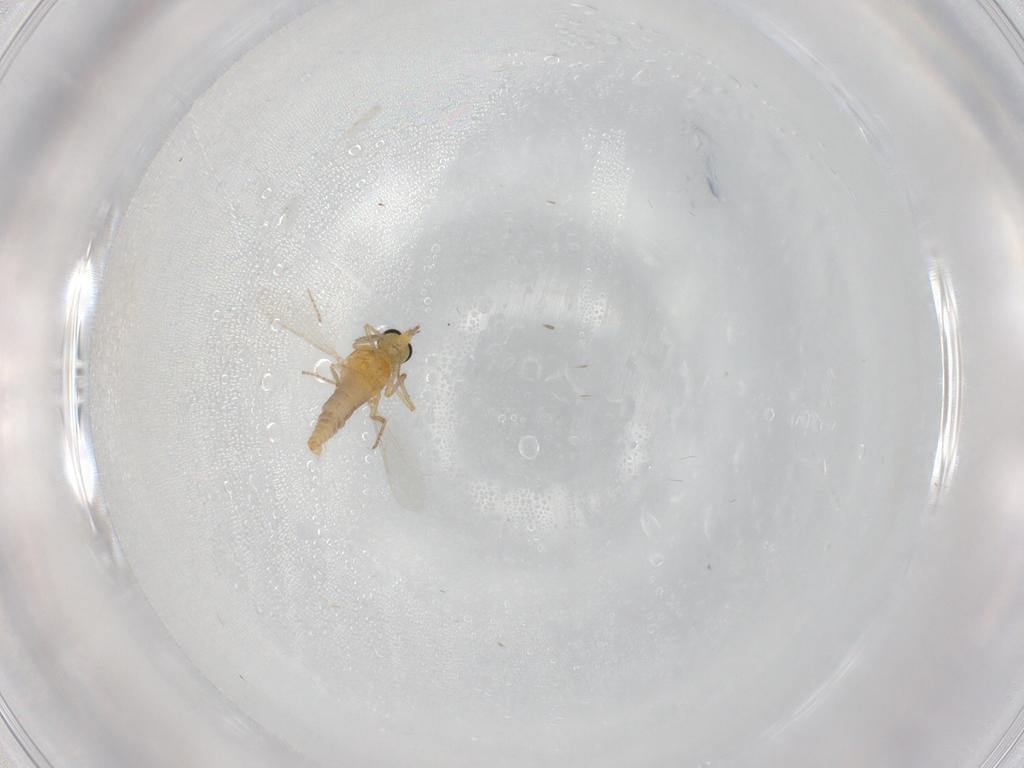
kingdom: Animalia
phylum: Arthropoda
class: Insecta
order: Diptera
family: Ceratopogonidae
